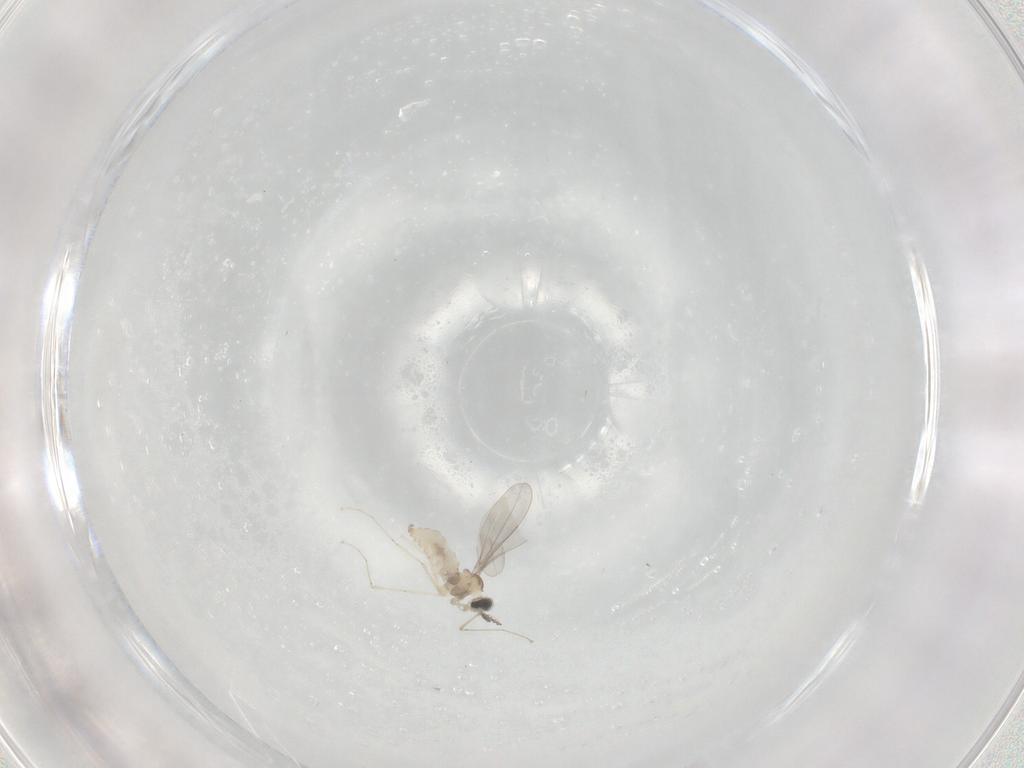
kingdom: Animalia
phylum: Arthropoda
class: Insecta
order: Diptera
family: Cecidomyiidae
